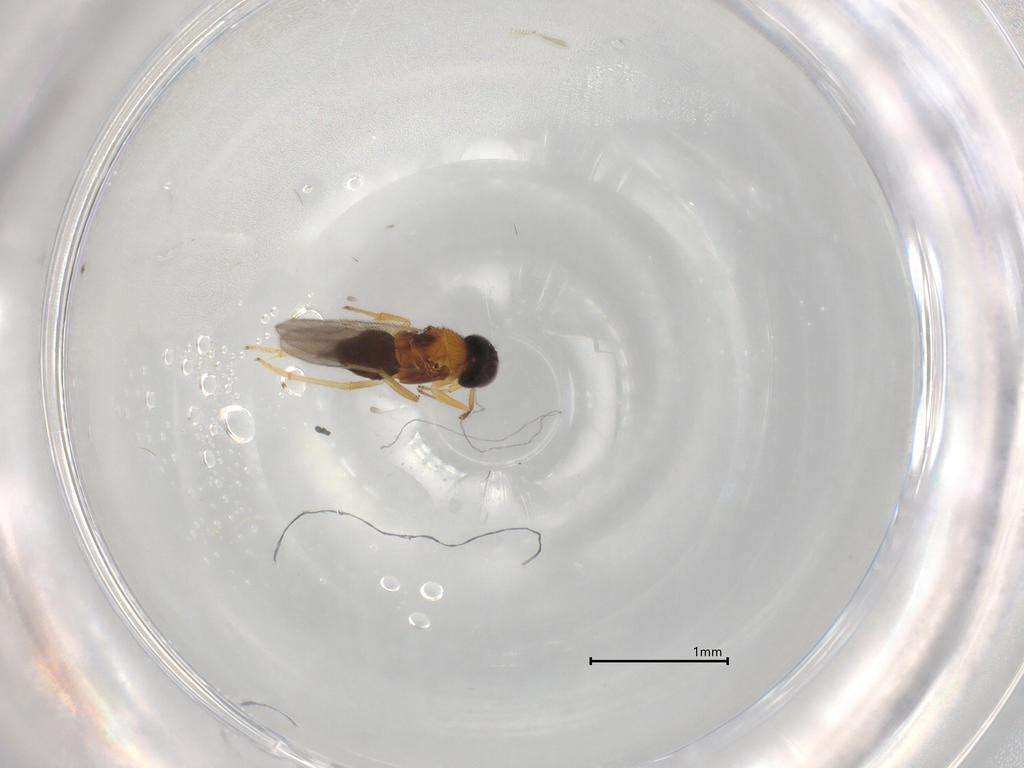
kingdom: Animalia
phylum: Arthropoda
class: Insecta
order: Hymenoptera
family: Encyrtidae
